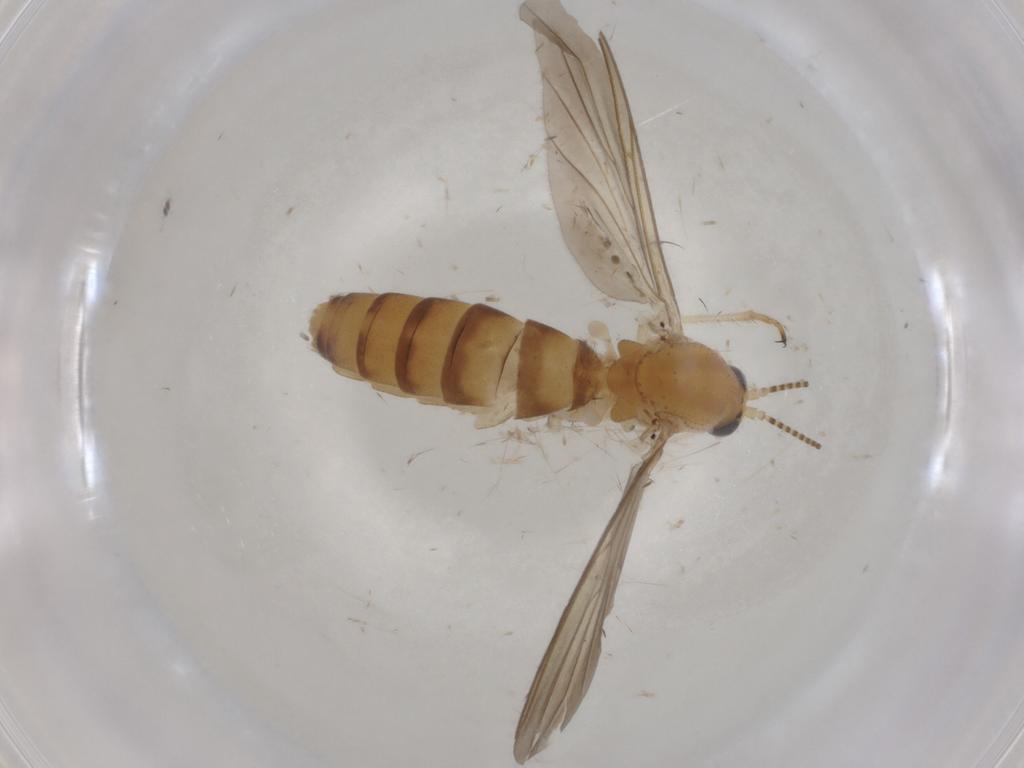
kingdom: Animalia
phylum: Arthropoda
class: Insecta
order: Diptera
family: Mycetophilidae
